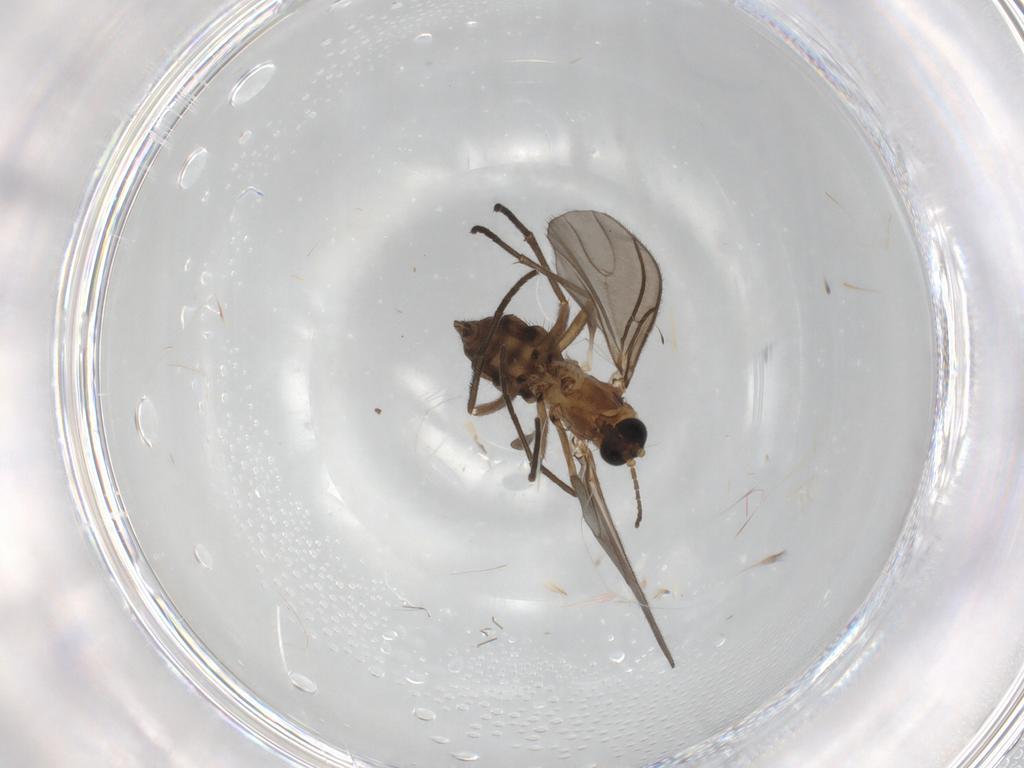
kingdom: Animalia
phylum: Arthropoda
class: Insecta
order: Diptera
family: Sciaridae
